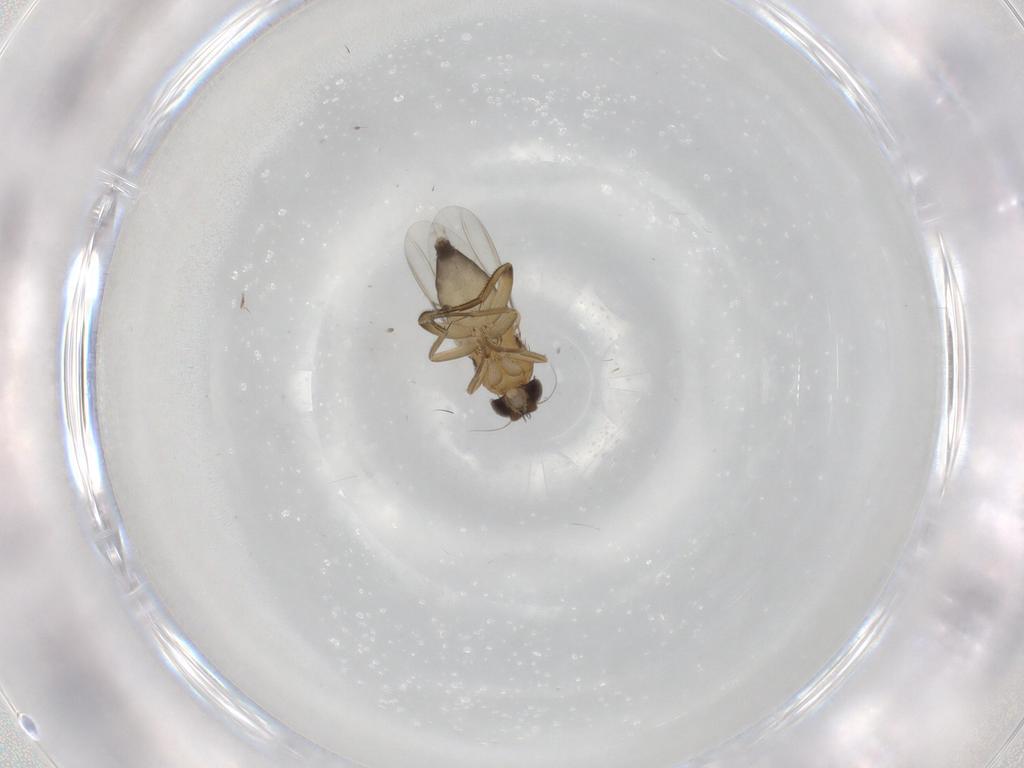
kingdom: Animalia
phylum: Arthropoda
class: Insecta
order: Diptera
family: Phoridae
